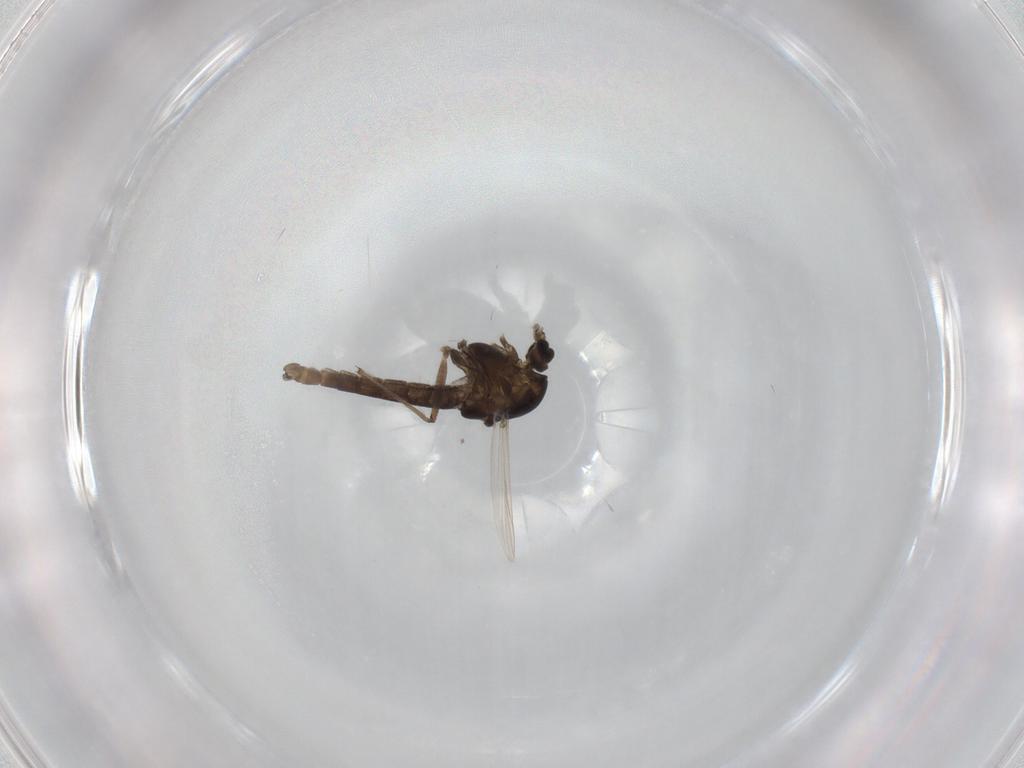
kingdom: Animalia
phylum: Arthropoda
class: Insecta
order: Diptera
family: Dolichopodidae
